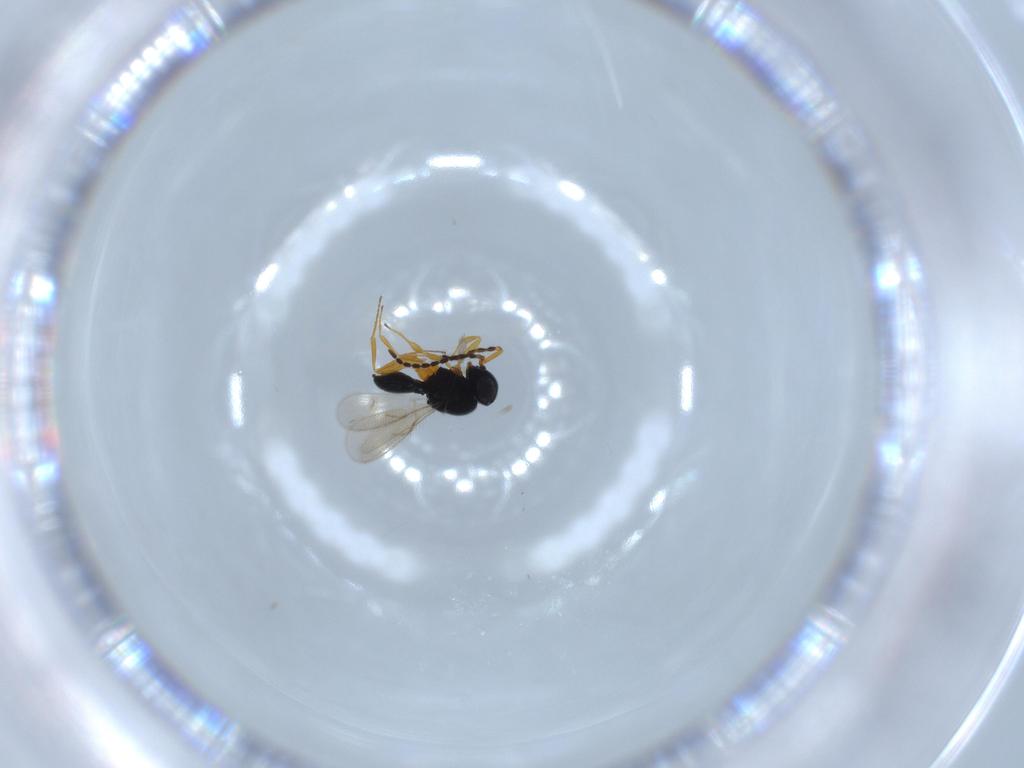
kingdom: Animalia
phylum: Arthropoda
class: Insecta
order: Hymenoptera
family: Scelionidae
